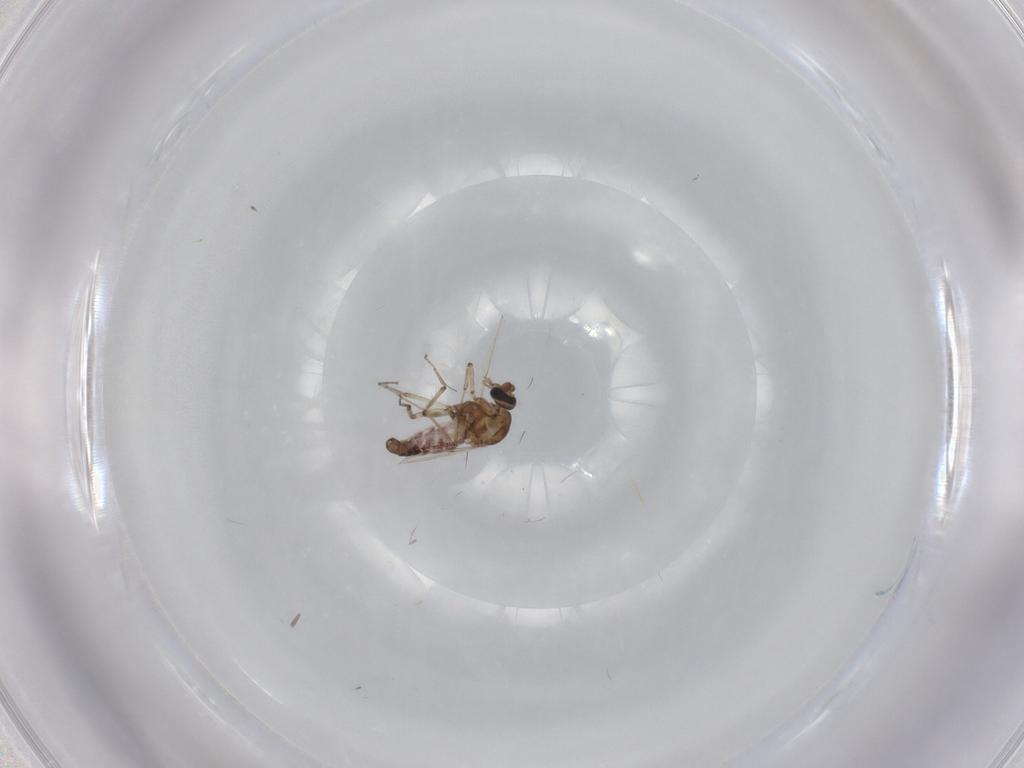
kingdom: Animalia
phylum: Arthropoda
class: Insecta
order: Diptera
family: Ceratopogonidae
